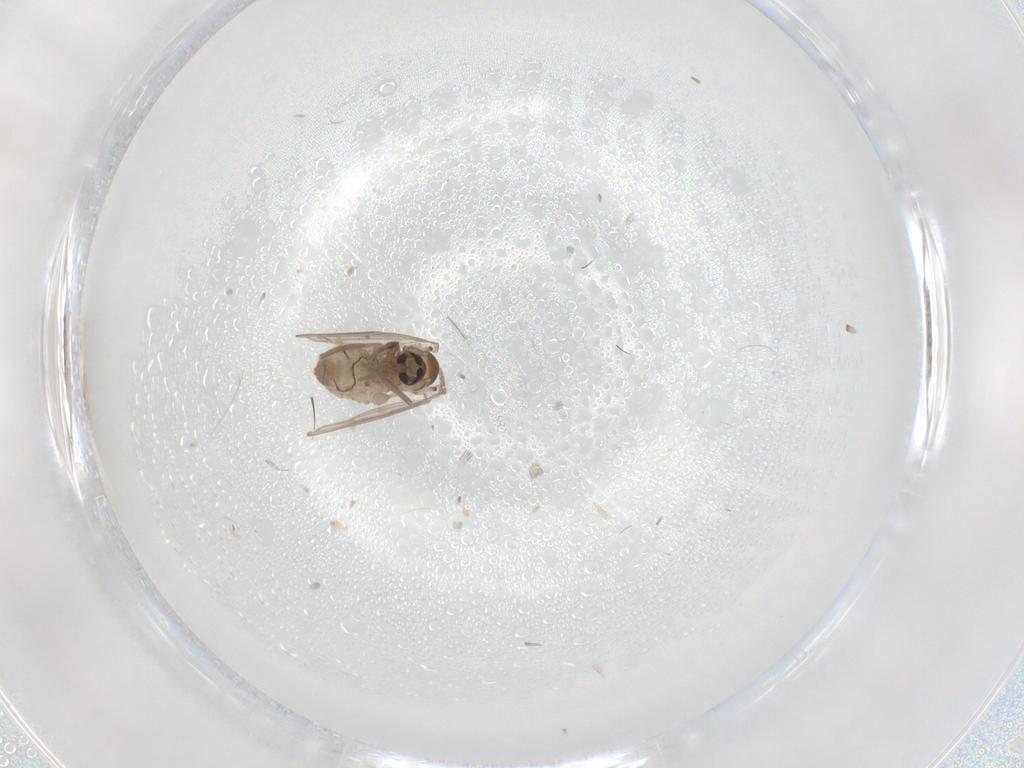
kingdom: Animalia
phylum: Arthropoda
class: Insecta
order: Diptera
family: Psychodidae
